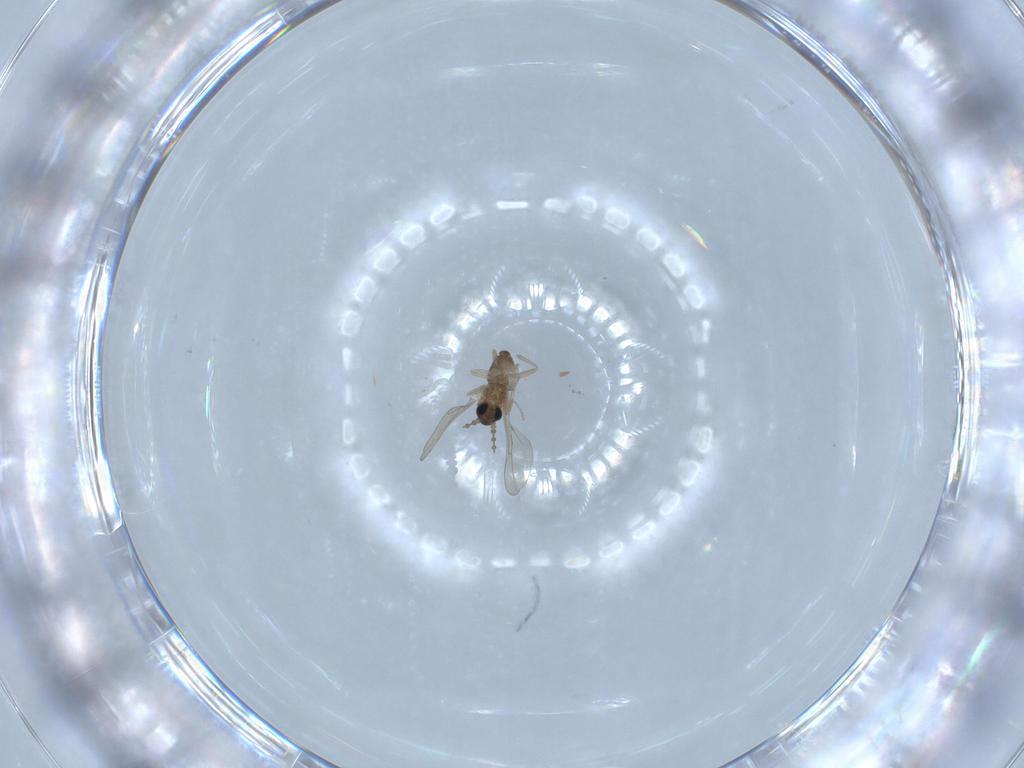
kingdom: Animalia
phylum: Arthropoda
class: Insecta
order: Diptera
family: Cecidomyiidae
